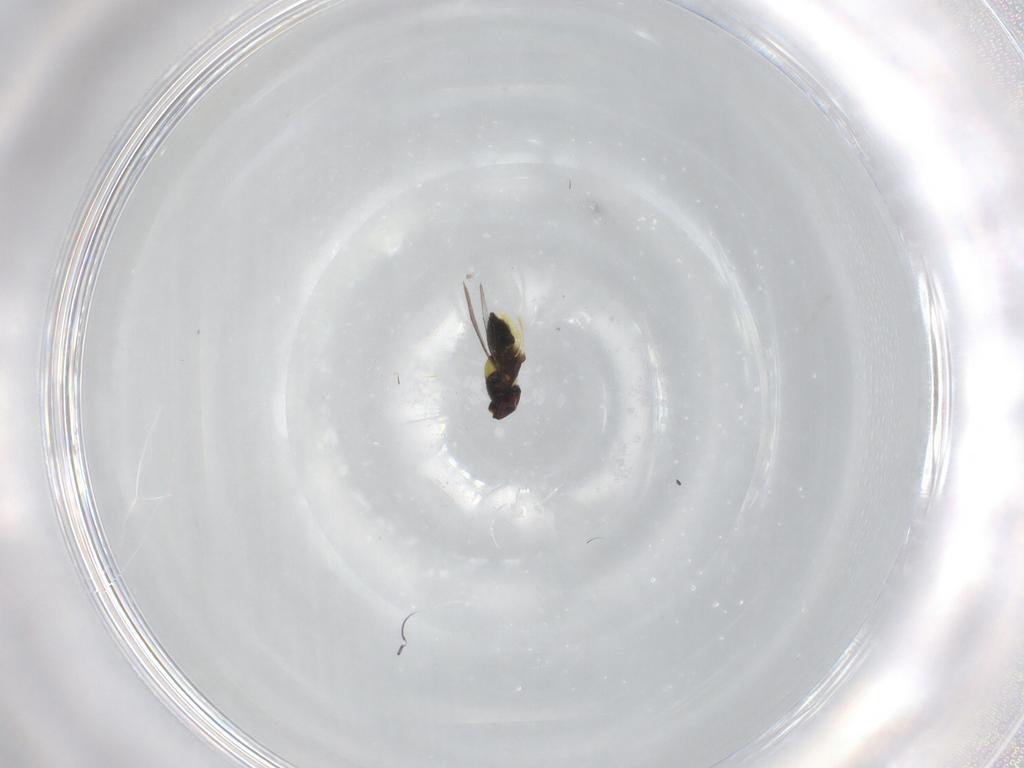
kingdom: Animalia
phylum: Arthropoda
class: Insecta
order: Hymenoptera
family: Aphelinidae
